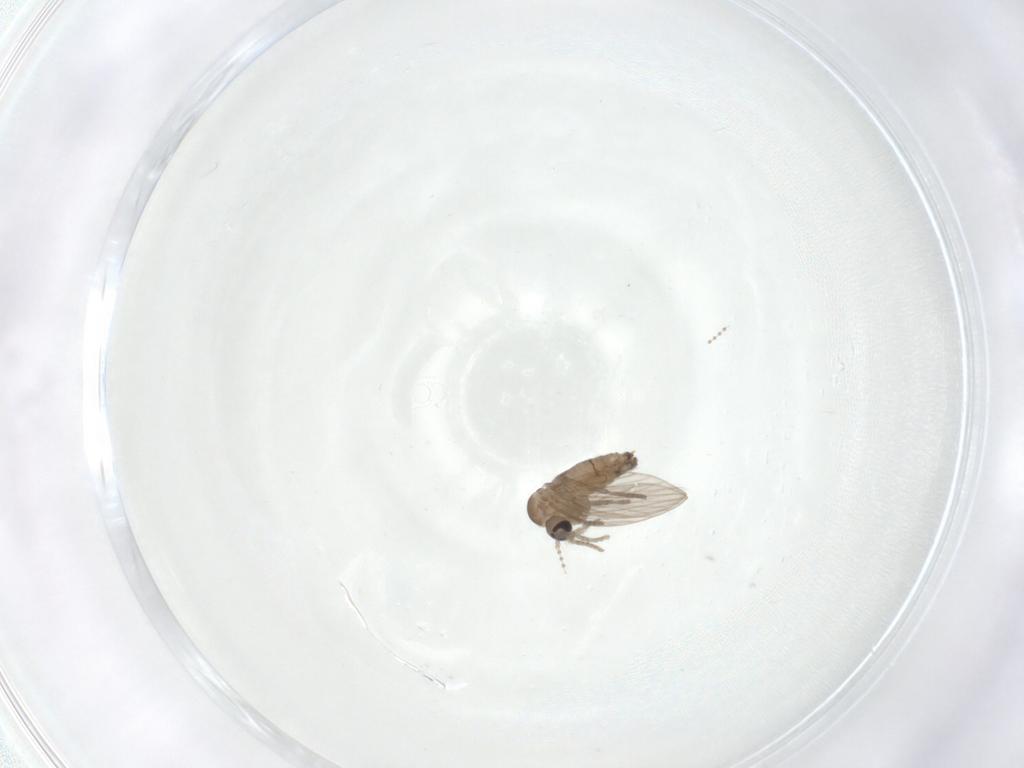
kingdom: Animalia
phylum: Arthropoda
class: Insecta
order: Diptera
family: Psychodidae
